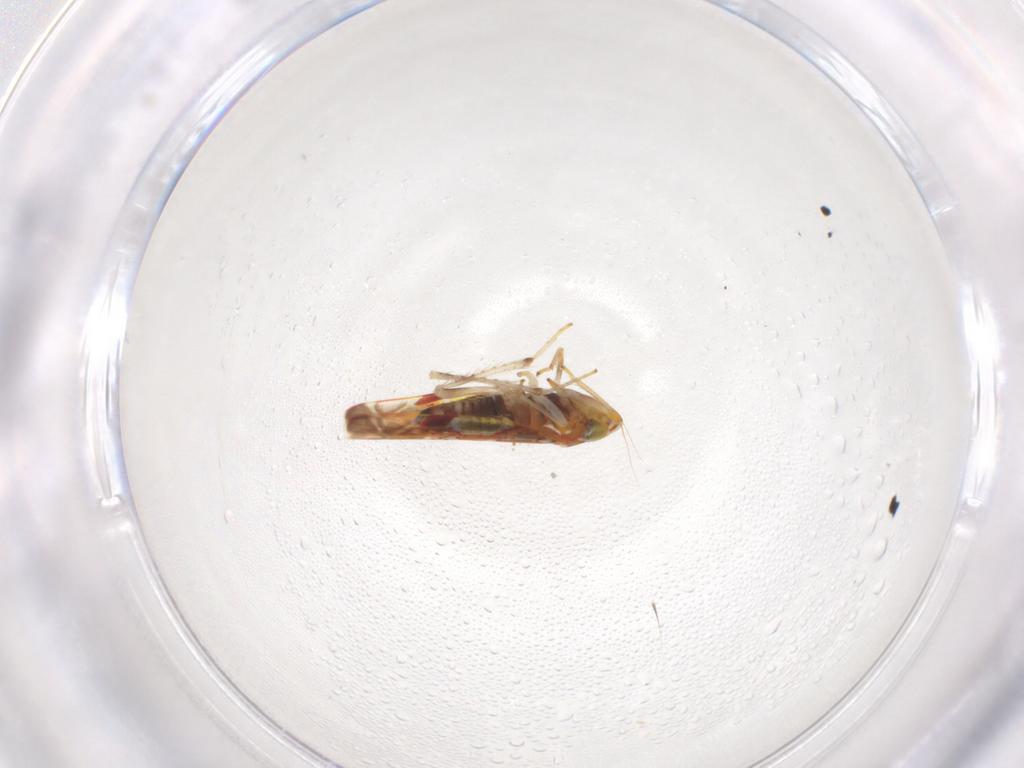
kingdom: Animalia
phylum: Arthropoda
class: Insecta
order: Hemiptera
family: Cicadellidae
